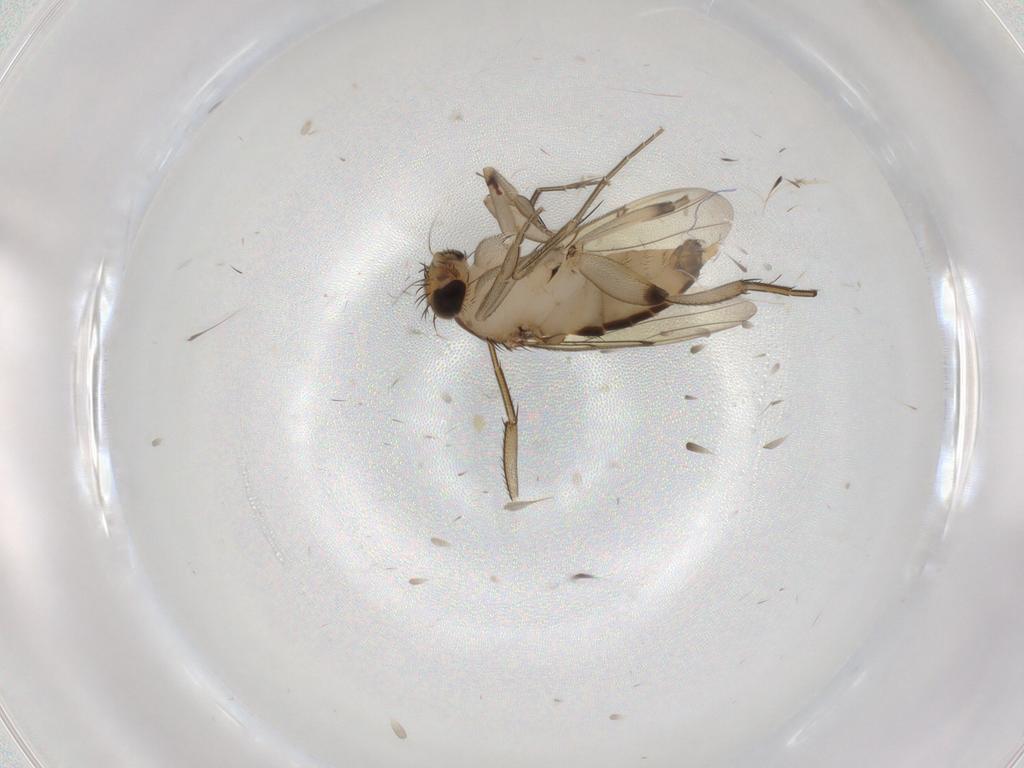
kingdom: Animalia
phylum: Arthropoda
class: Insecta
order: Diptera
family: Phoridae
